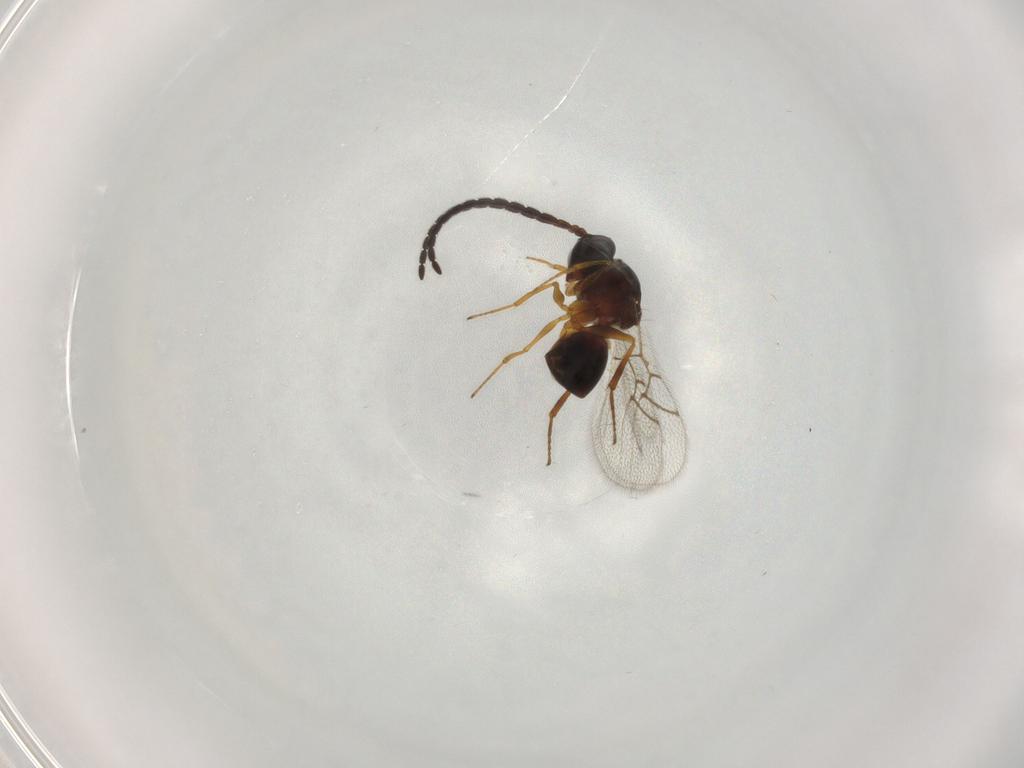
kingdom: Animalia
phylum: Arthropoda
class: Insecta
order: Hymenoptera
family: Figitidae
